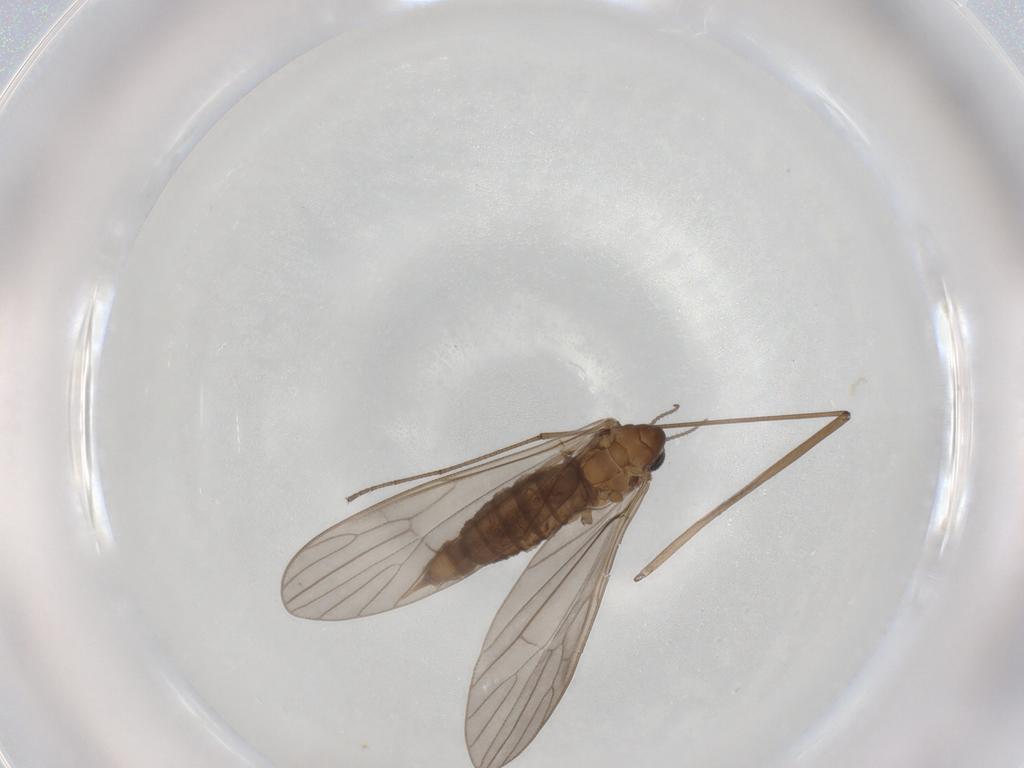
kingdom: Animalia
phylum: Arthropoda
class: Insecta
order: Diptera
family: Limoniidae
